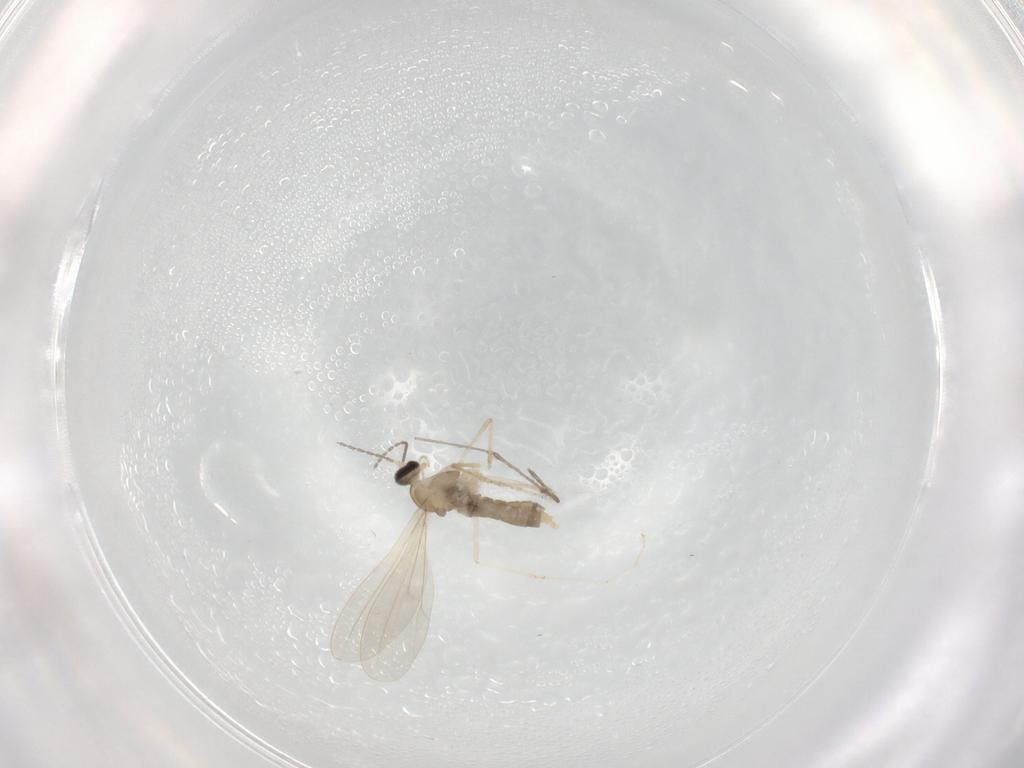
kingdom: Animalia
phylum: Arthropoda
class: Insecta
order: Diptera
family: Cecidomyiidae
